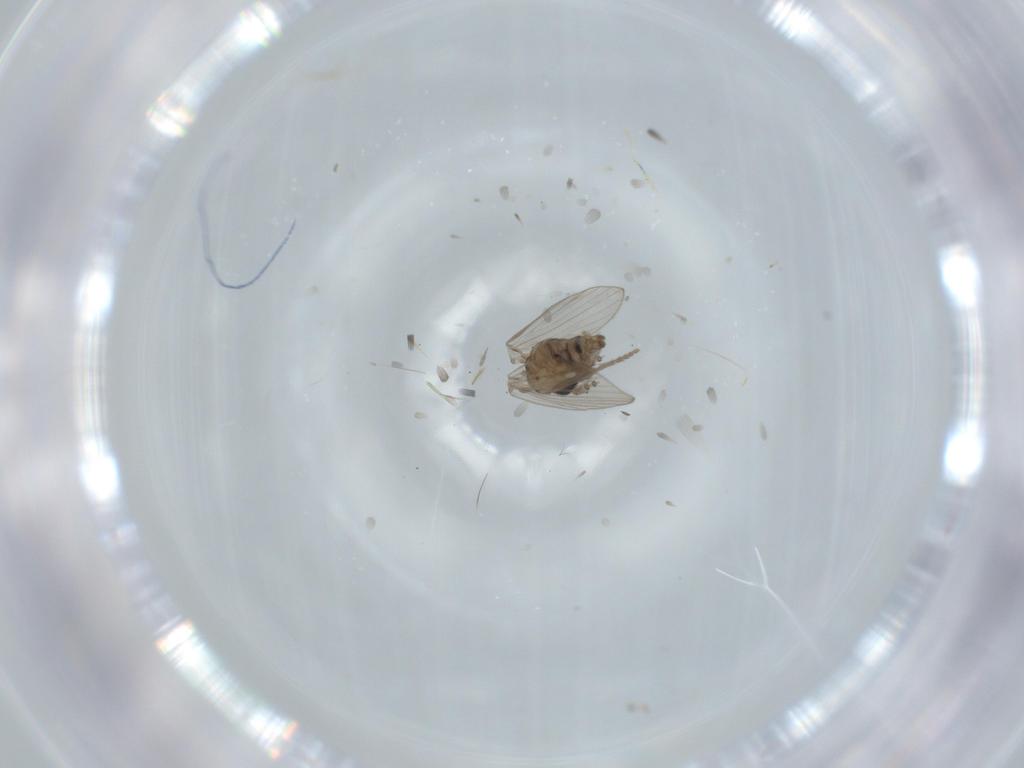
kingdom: Animalia
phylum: Arthropoda
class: Insecta
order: Diptera
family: Psychodidae
